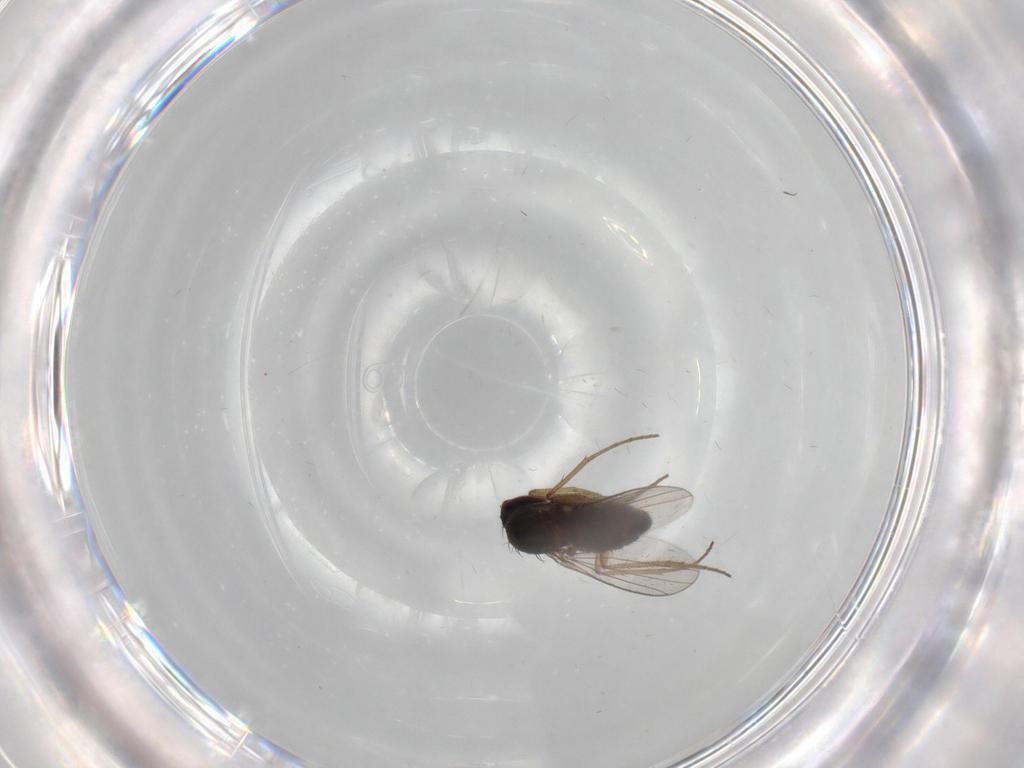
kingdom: Animalia
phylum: Arthropoda
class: Insecta
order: Diptera
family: Dolichopodidae
